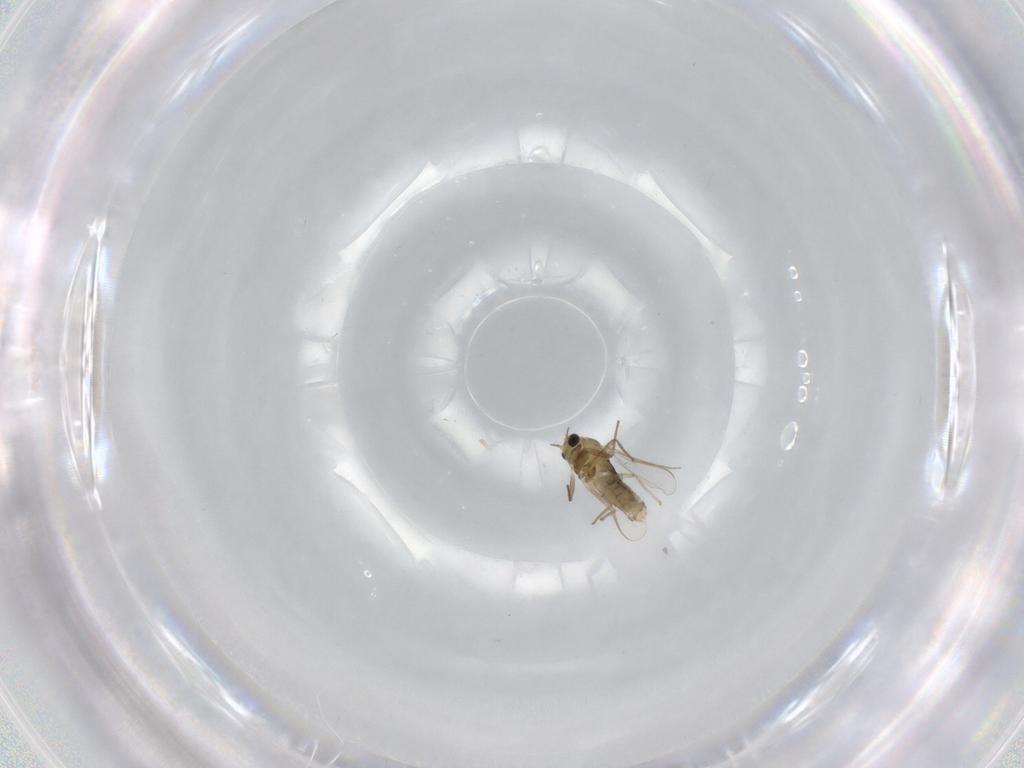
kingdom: Animalia
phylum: Arthropoda
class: Insecta
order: Diptera
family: Chironomidae
